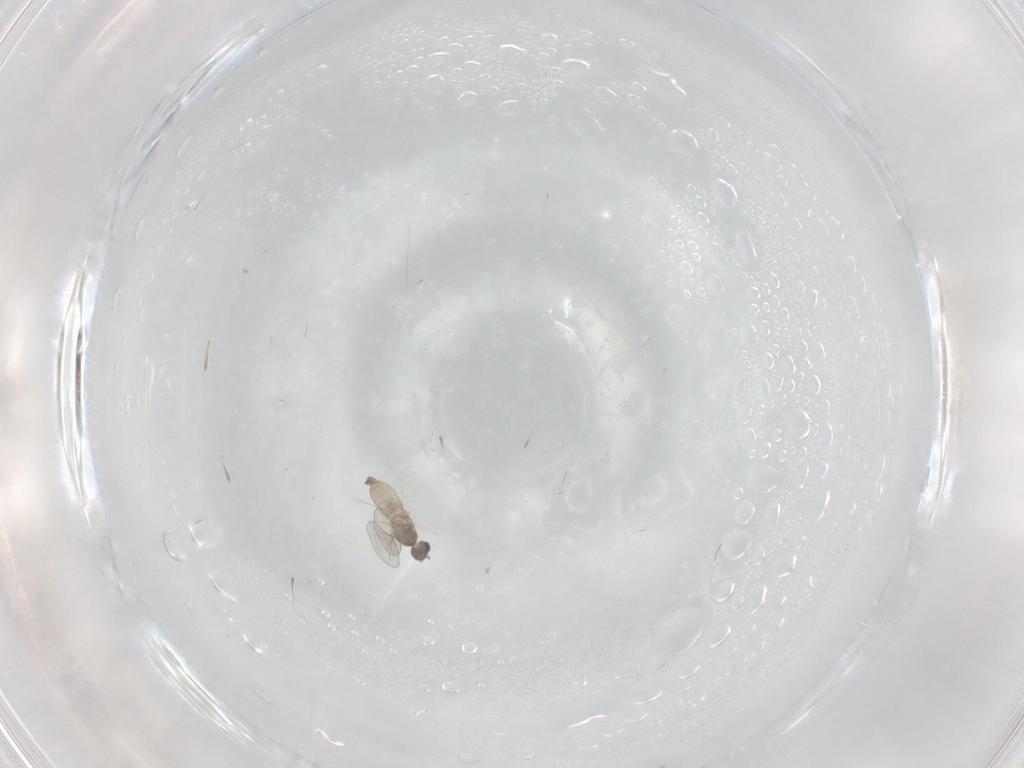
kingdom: Animalia
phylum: Arthropoda
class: Insecta
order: Diptera
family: Cecidomyiidae
